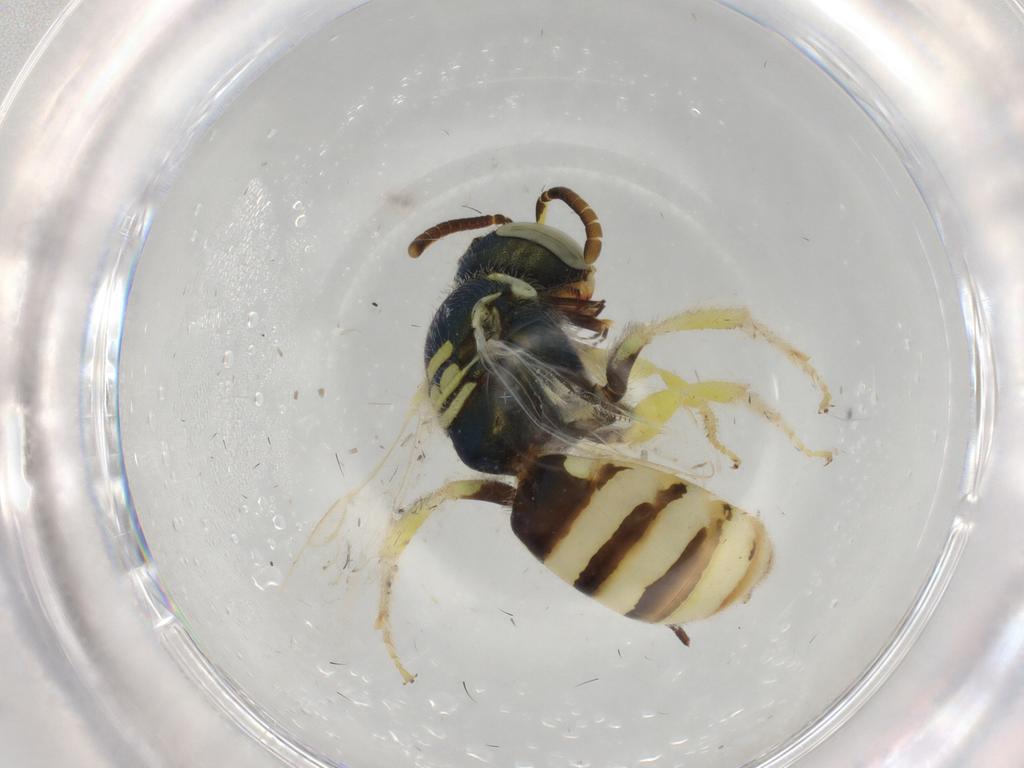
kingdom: Animalia
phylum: Arthropoda
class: Insecta
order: Hymenoptera
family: Halictidae
